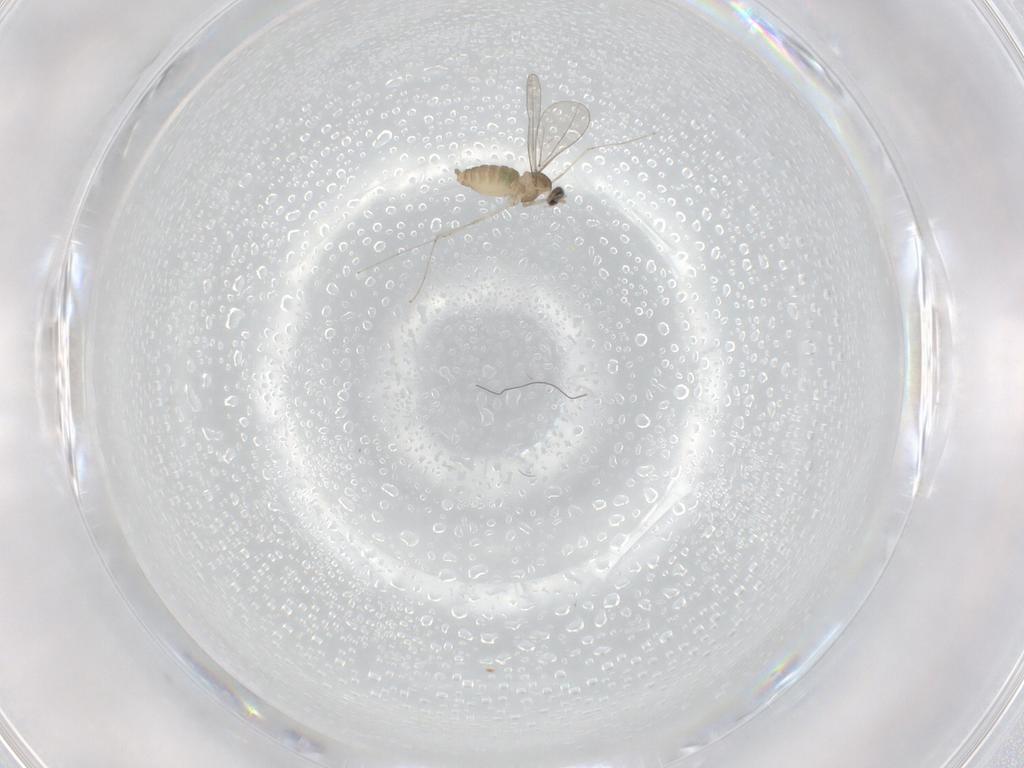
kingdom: Animalia
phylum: Arthropoda
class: Insecta
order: Diptera
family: Cecidomyiidae
